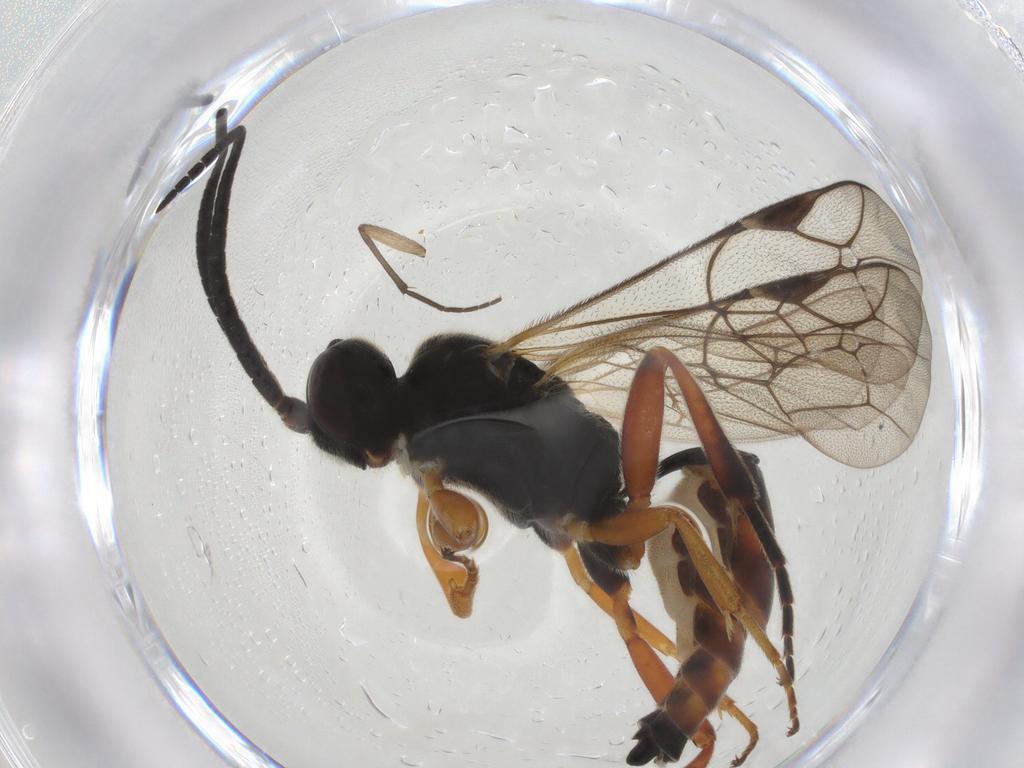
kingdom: Animalia
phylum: Arthropoda
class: Insecta
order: Hymenoptera
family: Ichneumonidae
